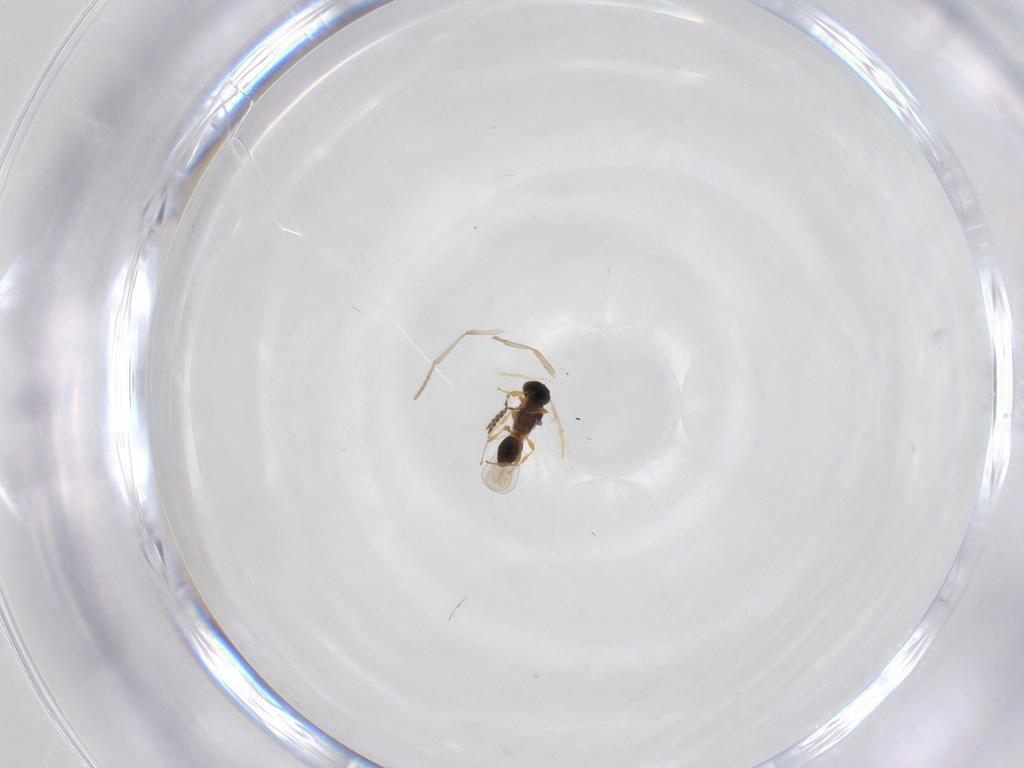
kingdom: Animalia
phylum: Arthropoda
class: Insecta
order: Hymenoptera
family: Platygastridae
